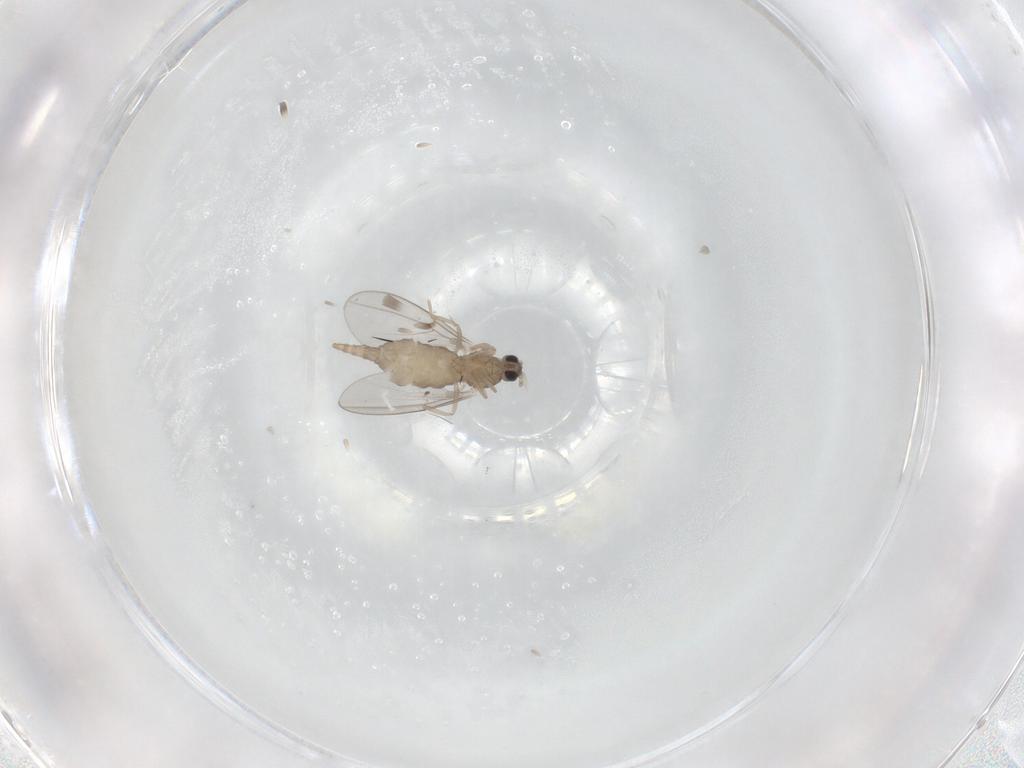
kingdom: Animalia
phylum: Arthropoda
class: Insecta
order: Diptera
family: Cecidomyiidae
